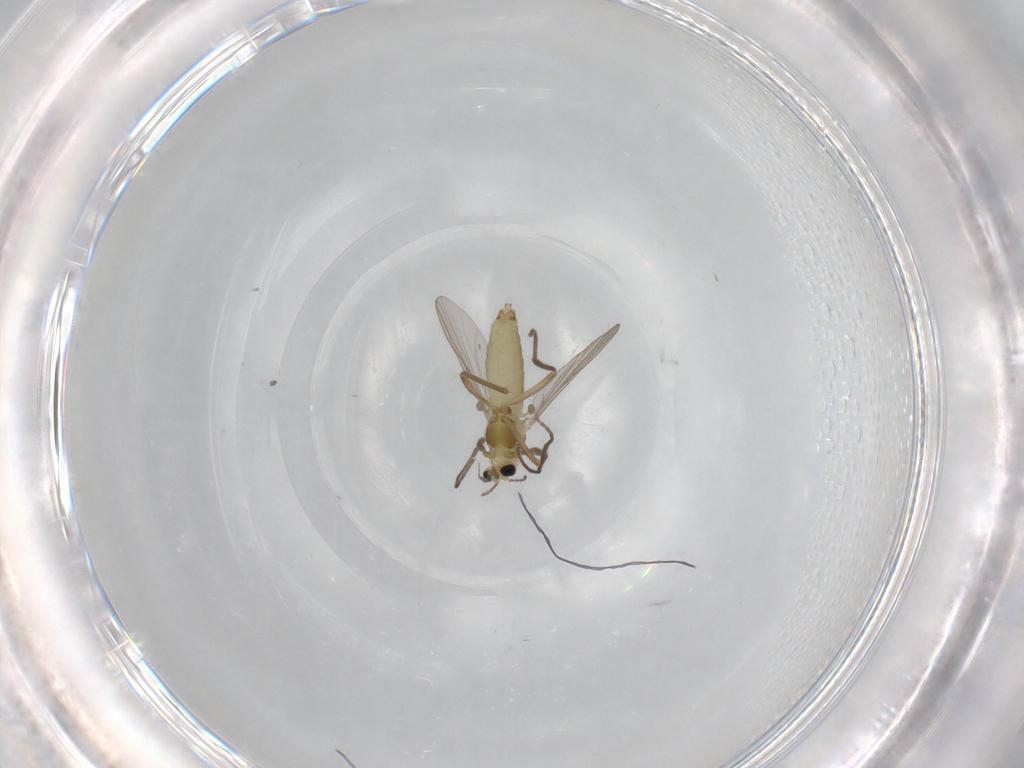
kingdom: Animalia
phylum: Arthropoda
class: Insecta
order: Diptera
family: Chironomidae
